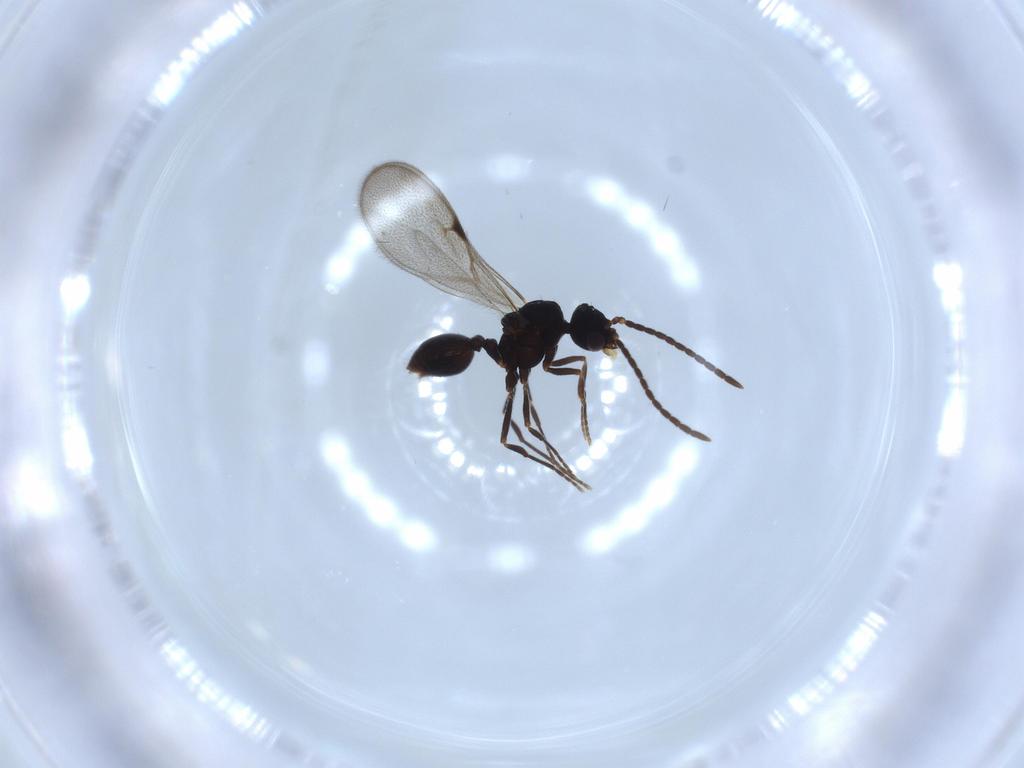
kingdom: Animalia
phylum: Arthropoda
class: Insecta
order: Hymenoptera
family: Formicidae
